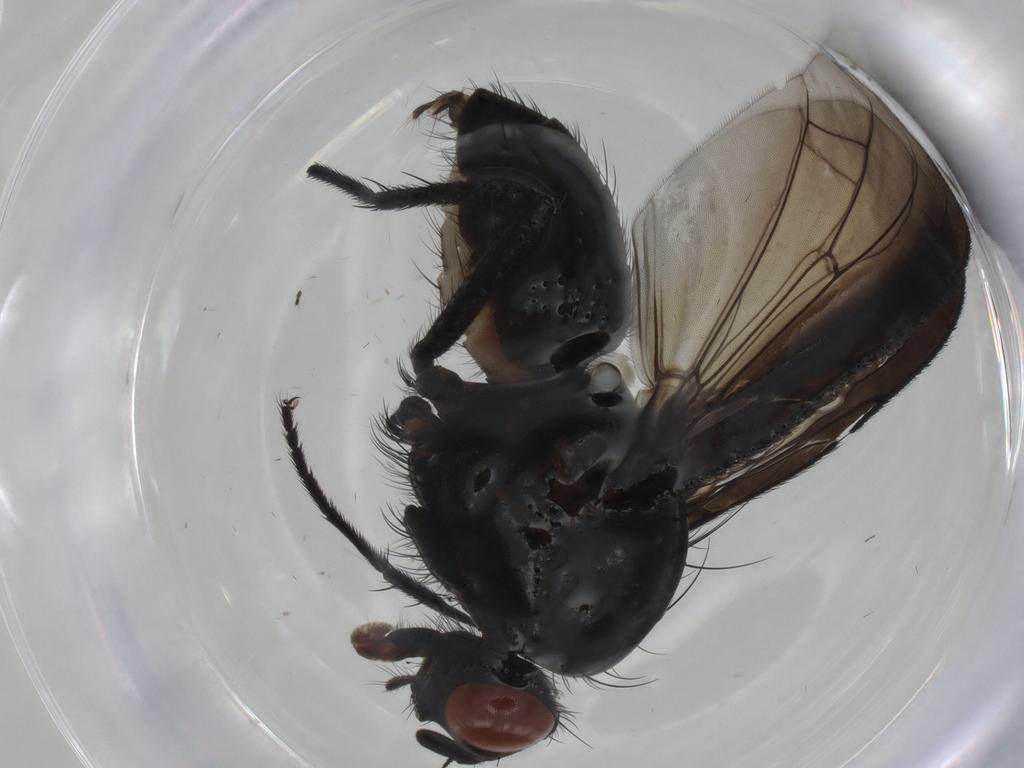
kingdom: Animalia
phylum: Arthropoda
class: Insecta
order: Diptera
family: Anthomyiidae
